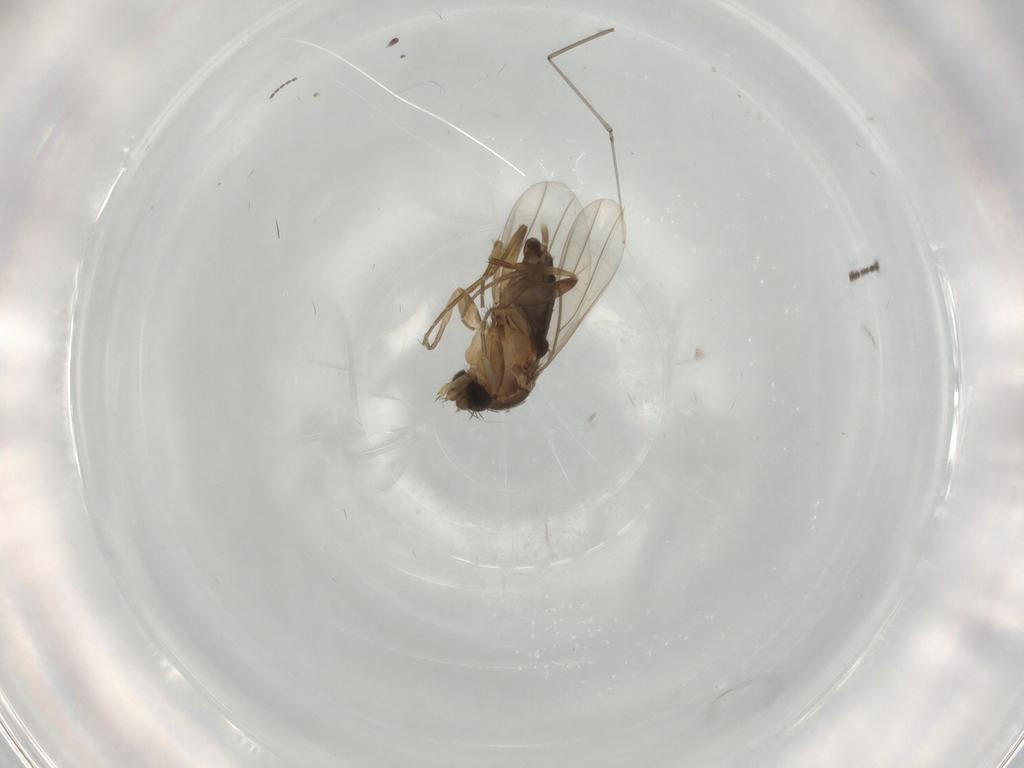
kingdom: Animalia
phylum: Arthropoda
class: Insecta
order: Diptera
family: Phoridae
